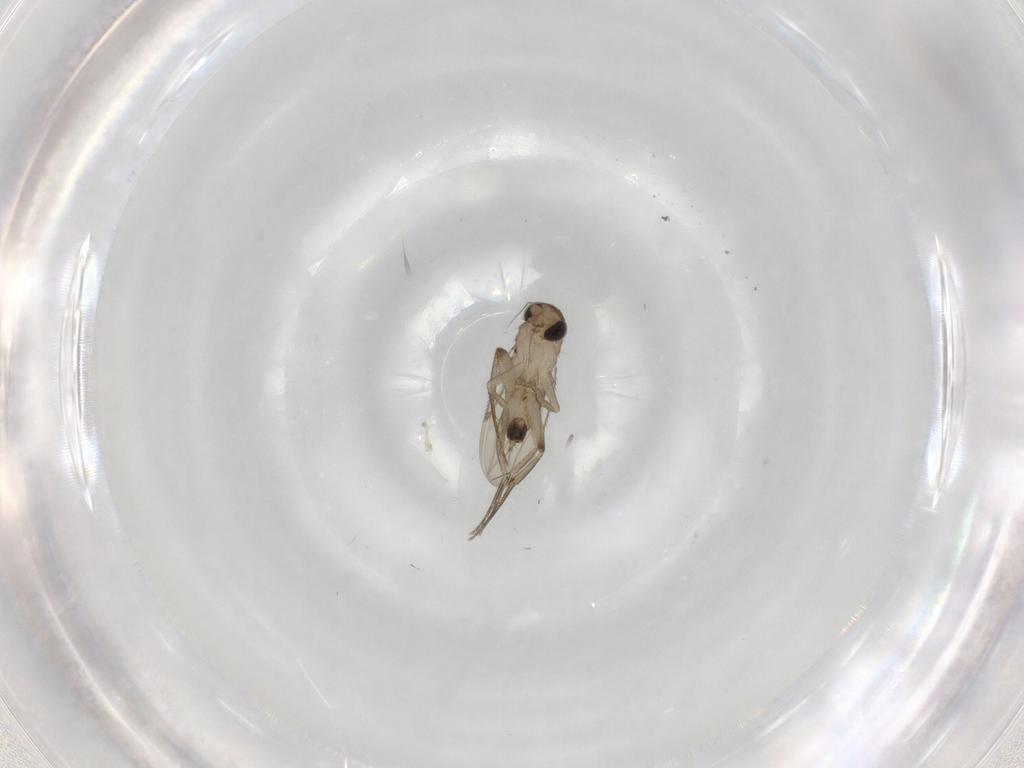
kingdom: Animalia
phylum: Arthropoda
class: Insecta
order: Diptera
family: Phoridae
